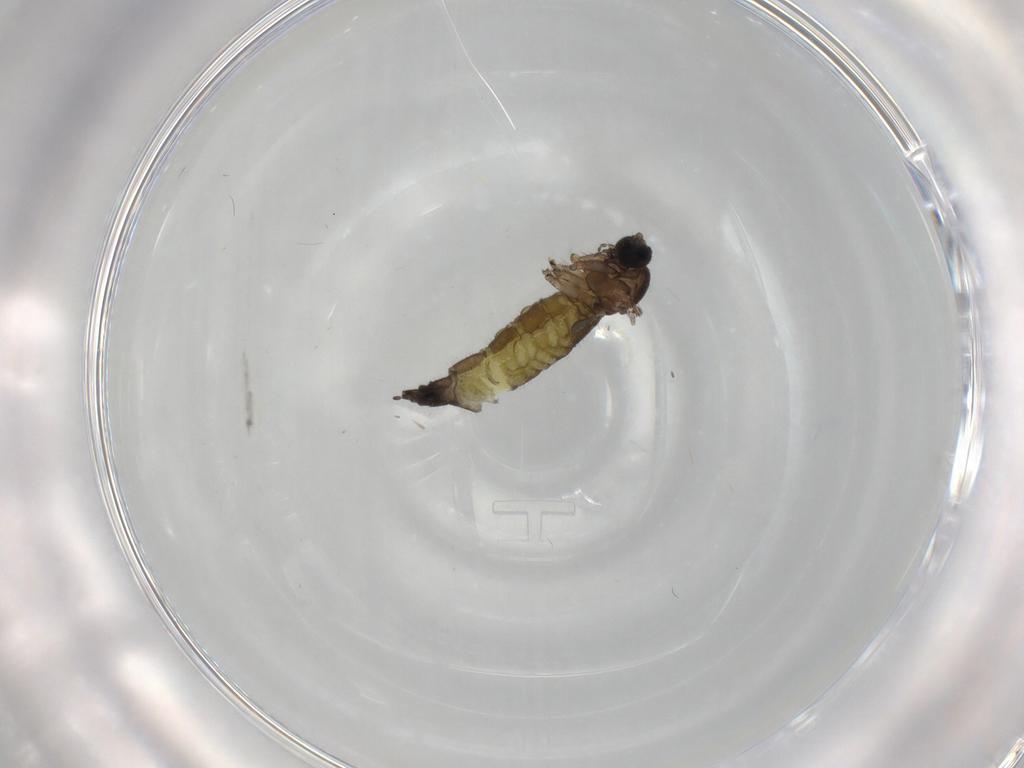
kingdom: Animalia
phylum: Arthropoda
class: Insecta
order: Diptera
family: Sciaridae
